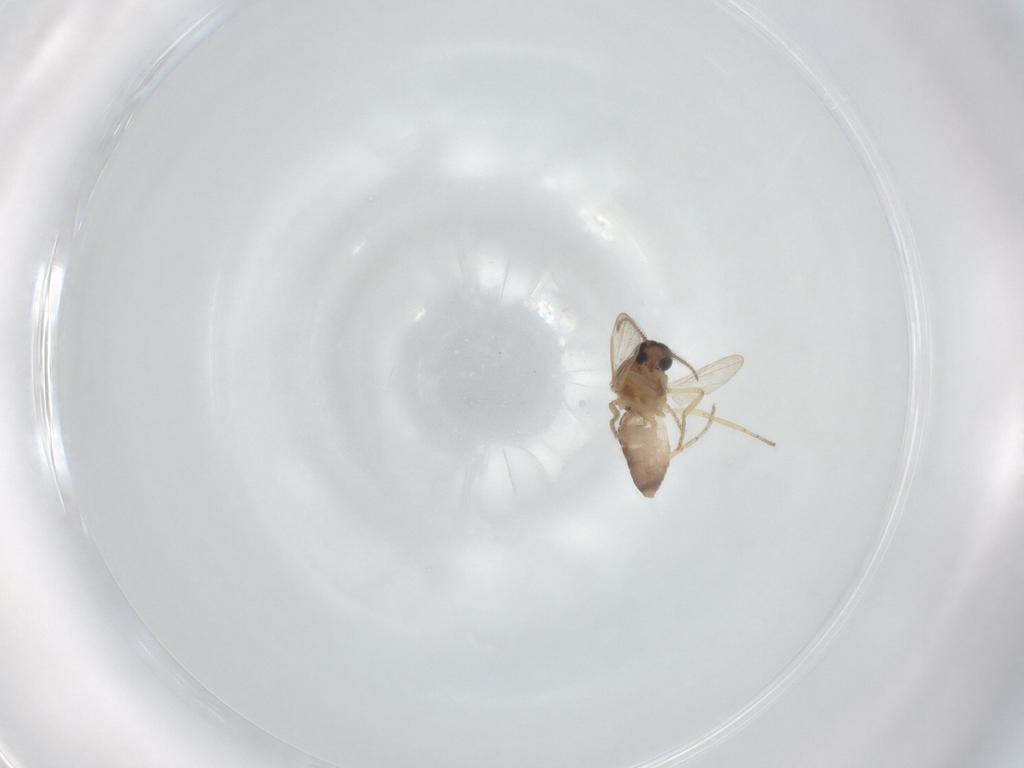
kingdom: Animalia
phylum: Arthropoda
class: Insecta
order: Diptera
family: Ceratopogonidae
